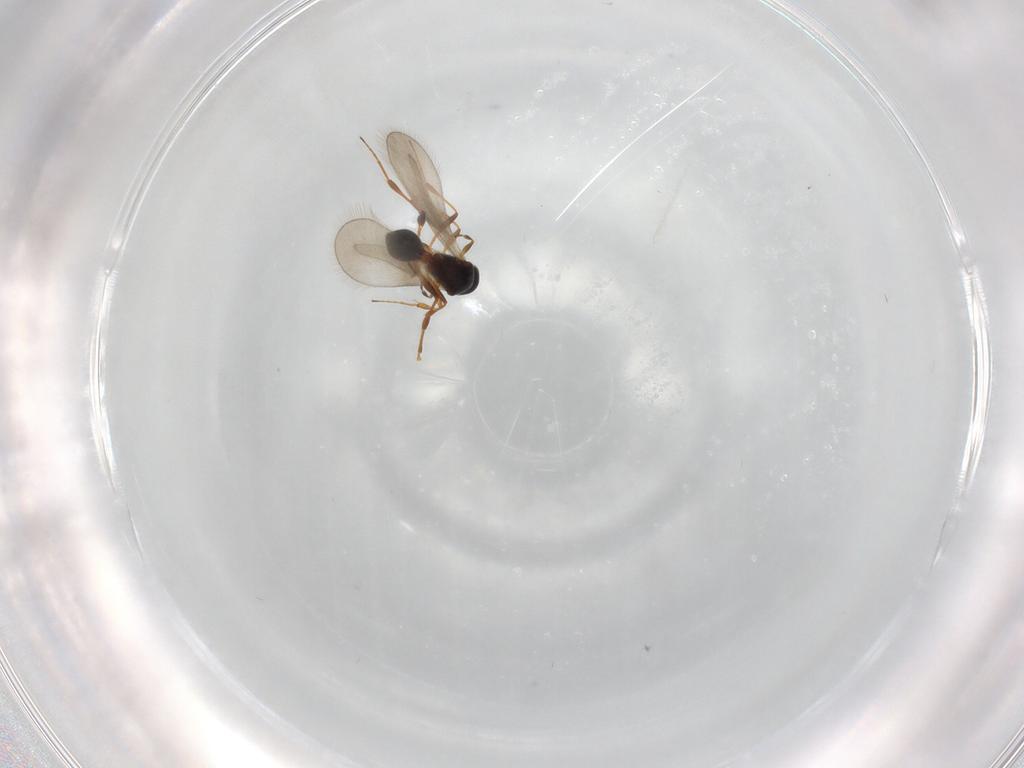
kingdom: Animalia
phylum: Arthropoda
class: Insecta
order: Hymenoptera
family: Platygastridae
